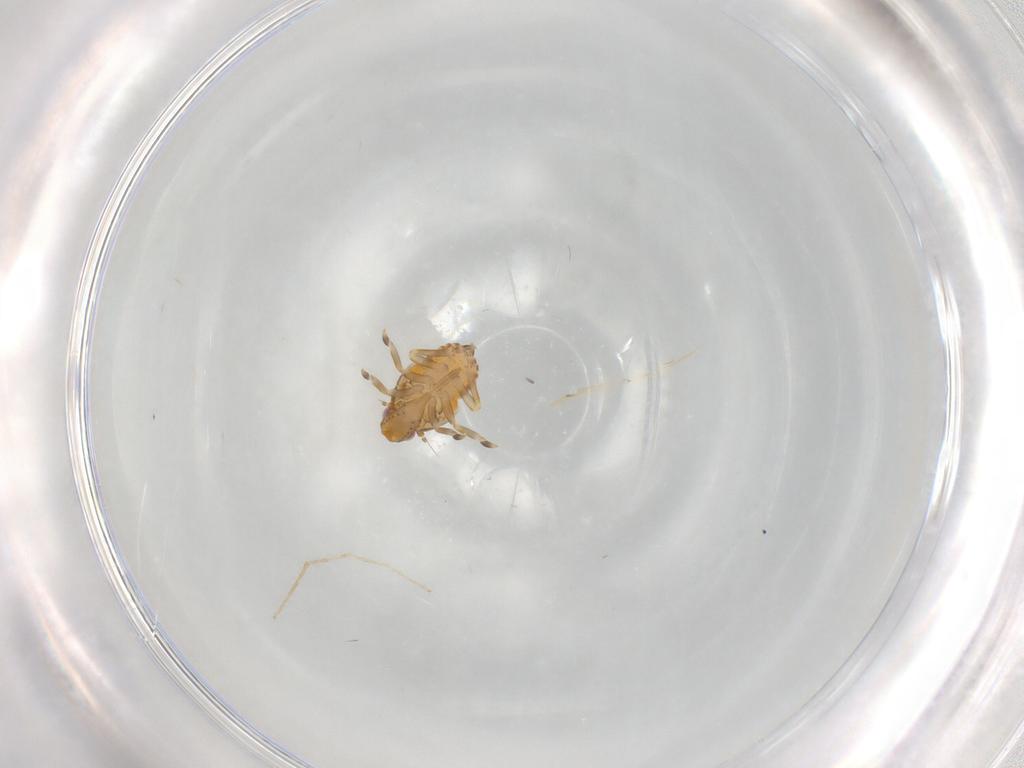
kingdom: Animalia
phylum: Arthropoda
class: Insecta
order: Hemiptera
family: Flatidae
